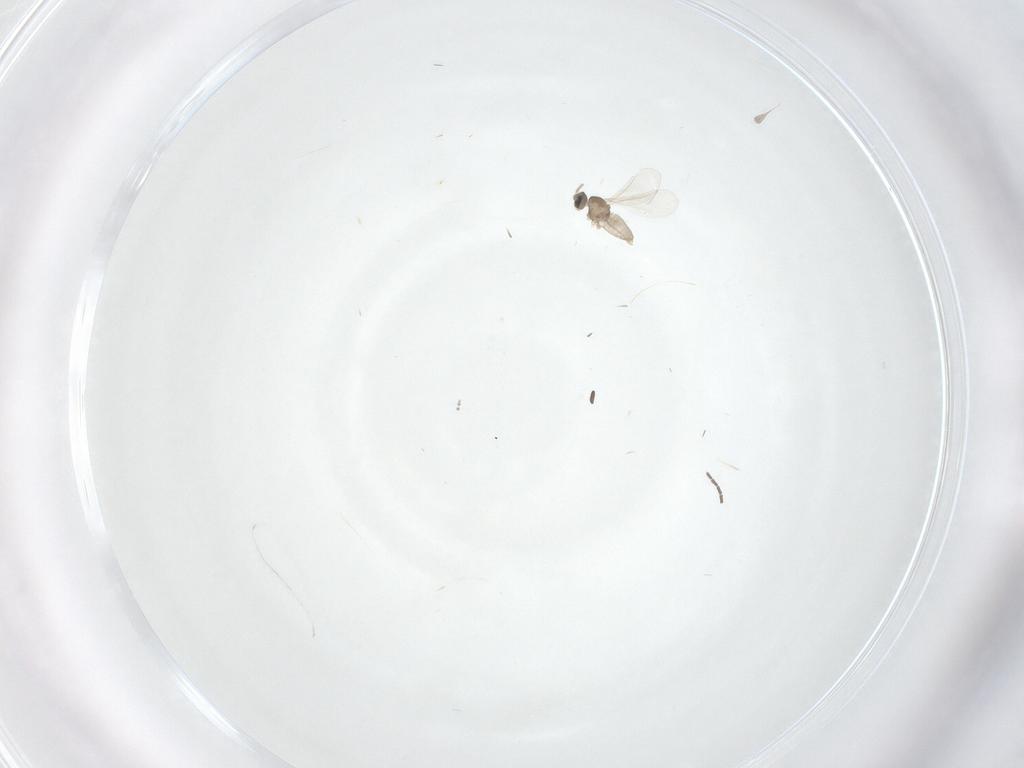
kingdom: Animalia
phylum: Arthropoda
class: Insecta
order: Diptera
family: Sciaridae
